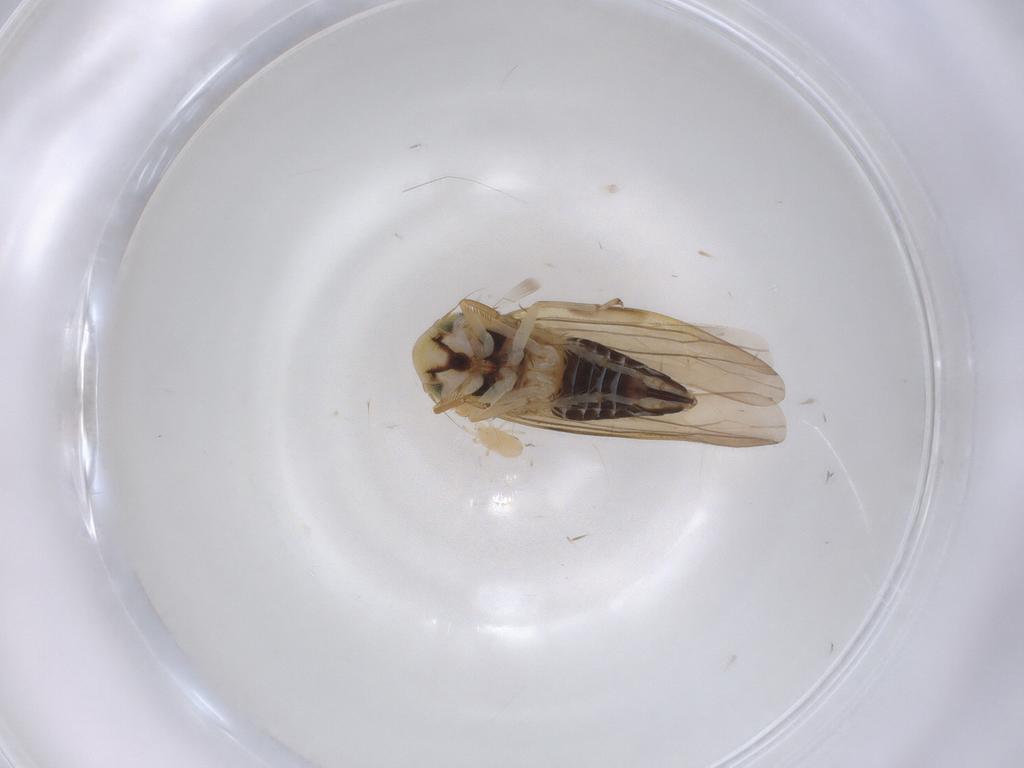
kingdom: Animalia
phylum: Arthropoda
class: Insecta
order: Hemiptera
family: Cicadellidae
